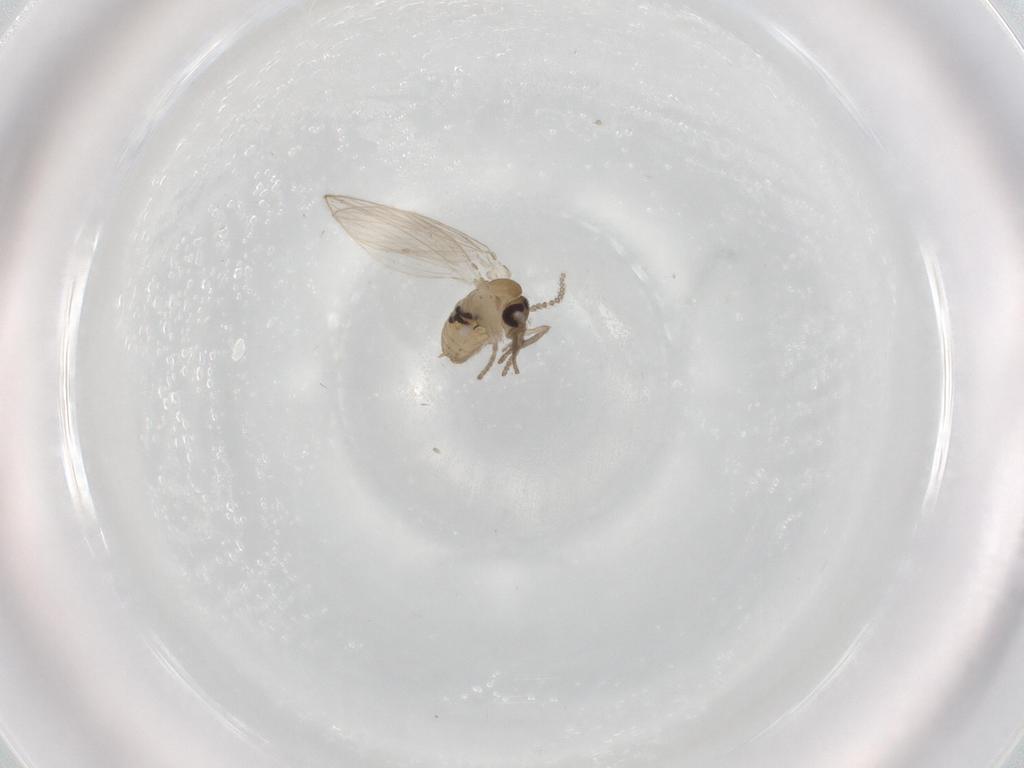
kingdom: Animalia
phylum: Arthropoda
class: Insecta
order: Diptera
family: Psychodidae
